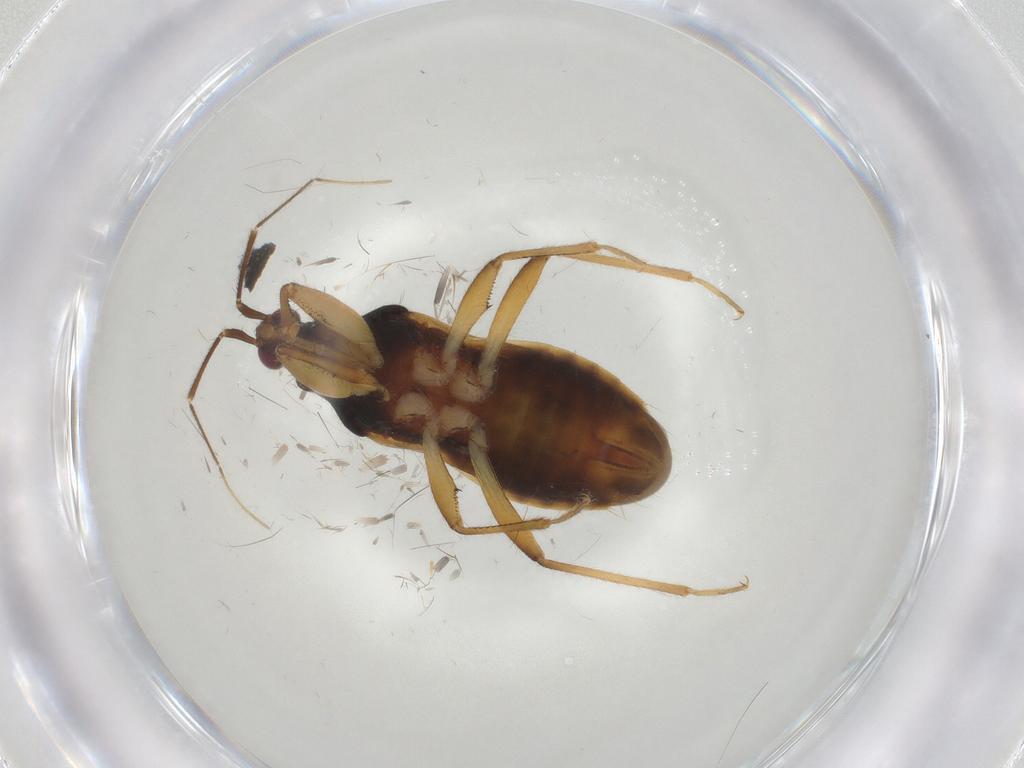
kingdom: Animalia
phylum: Arthropoda
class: Insecta
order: Hemiptera
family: Nabidae
